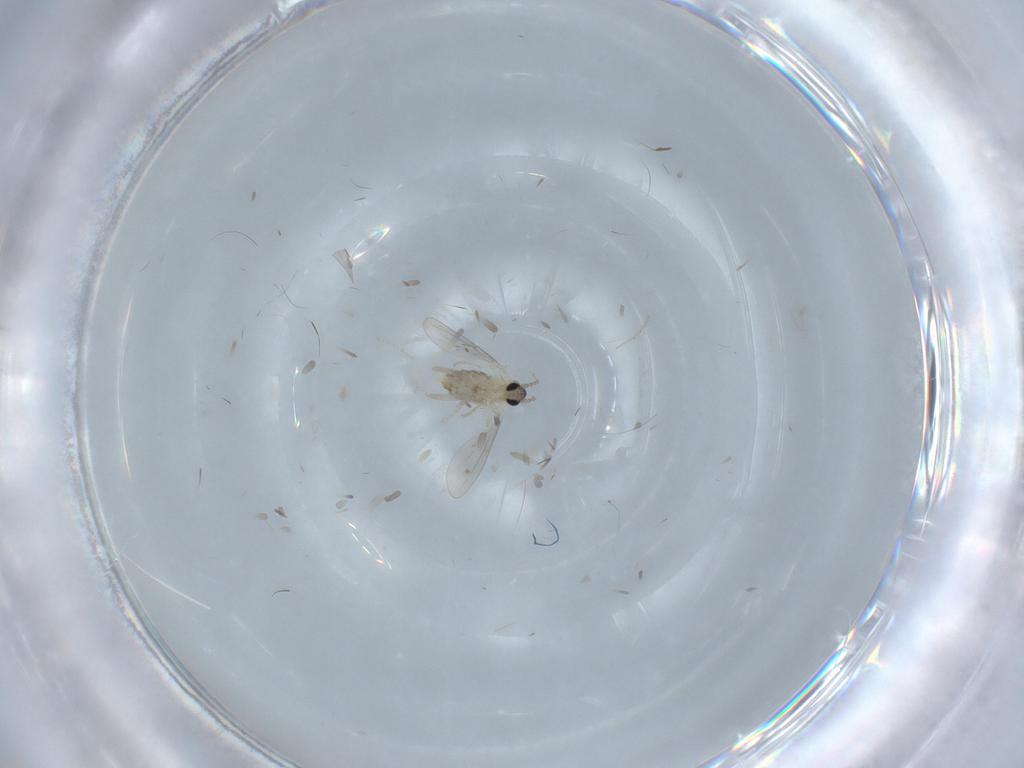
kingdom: Animalia
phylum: Arthropoda
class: Insecta
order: Diptera
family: Cecidomyiidae
